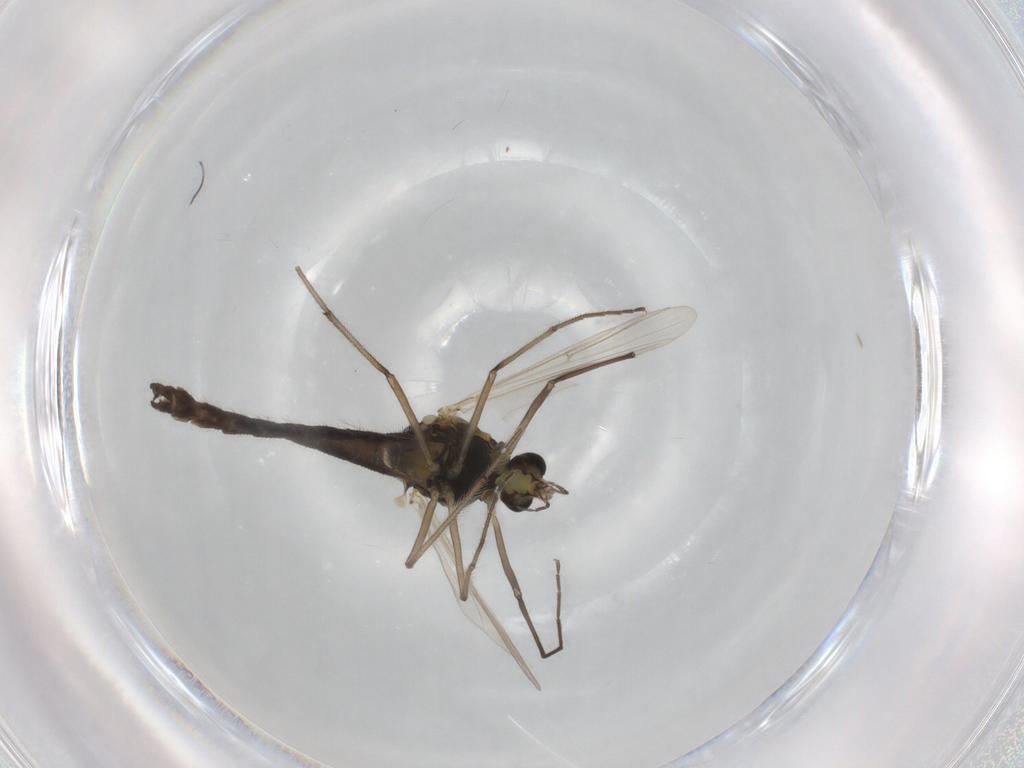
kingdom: Animalia
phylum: Arthropoda
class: Insecta
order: Diptera
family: Chironomidae
